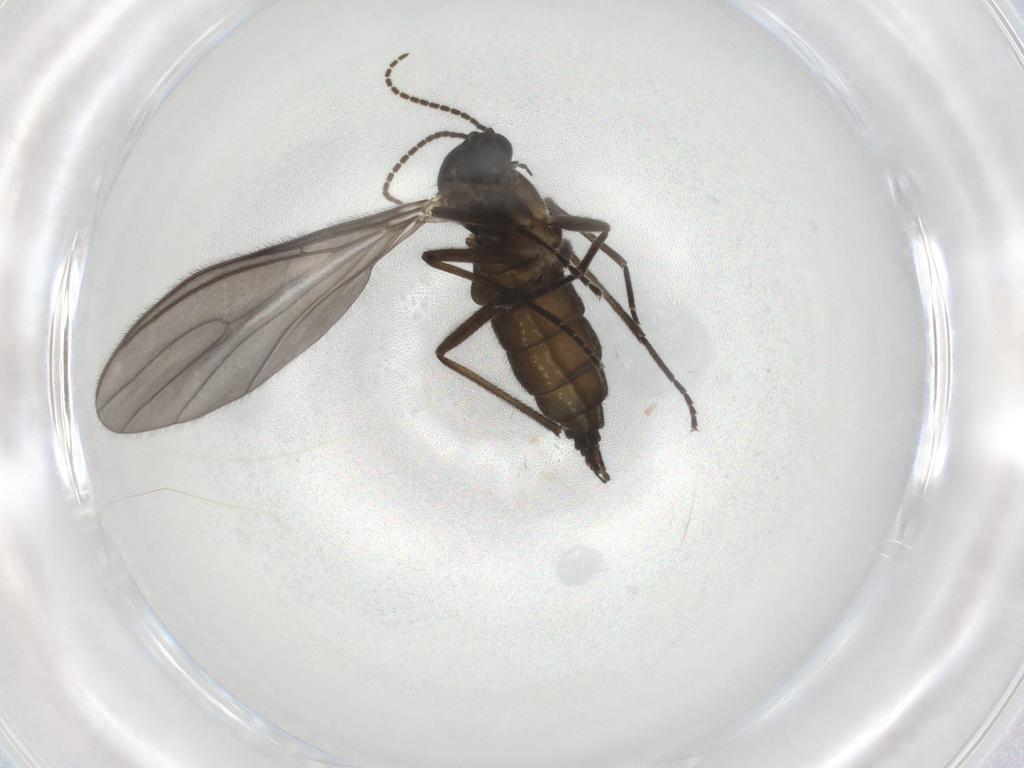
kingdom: Animalia
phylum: Arthropoda
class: Insecta
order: Diptera
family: Sciaridae
